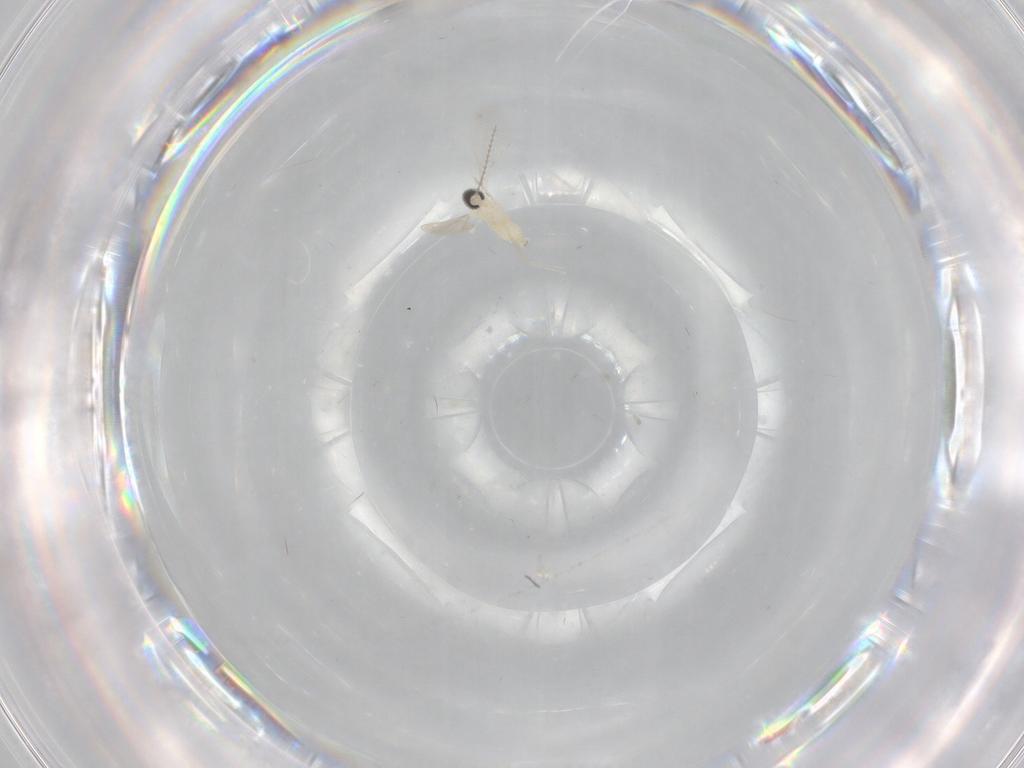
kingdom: Animalia
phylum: Arthropoda
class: Insecta
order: Diptera
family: Cecidomyiidae
